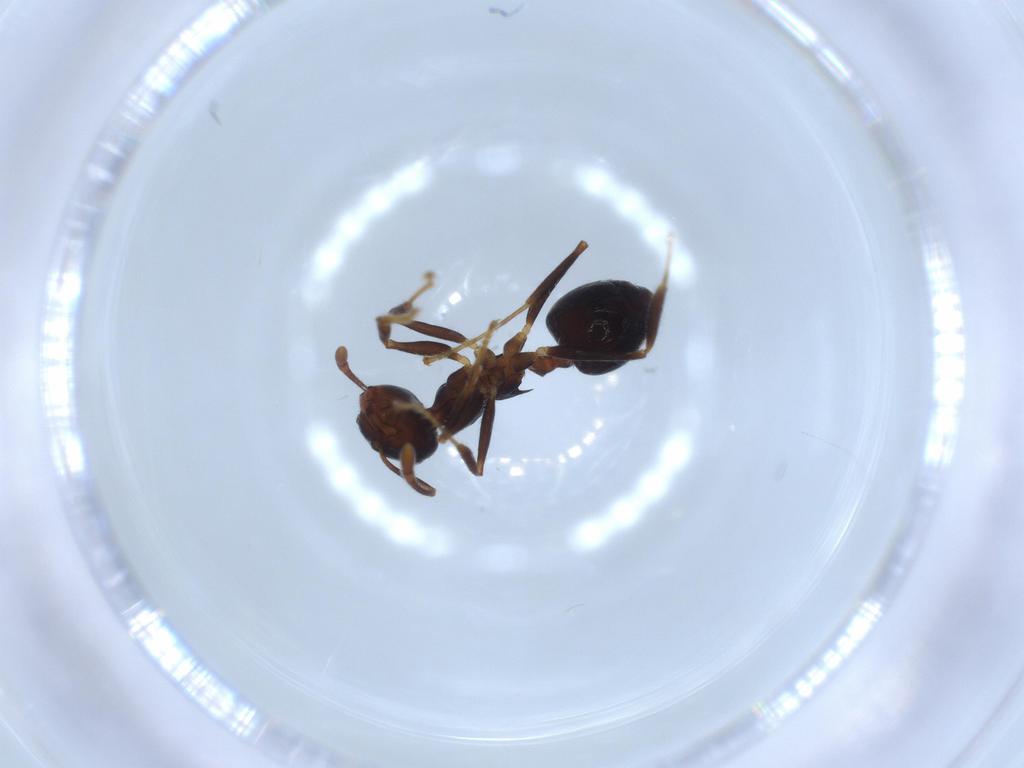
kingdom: Animalia
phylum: Arthropoda
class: Insecta
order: Hymenoptera
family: Formicidae
